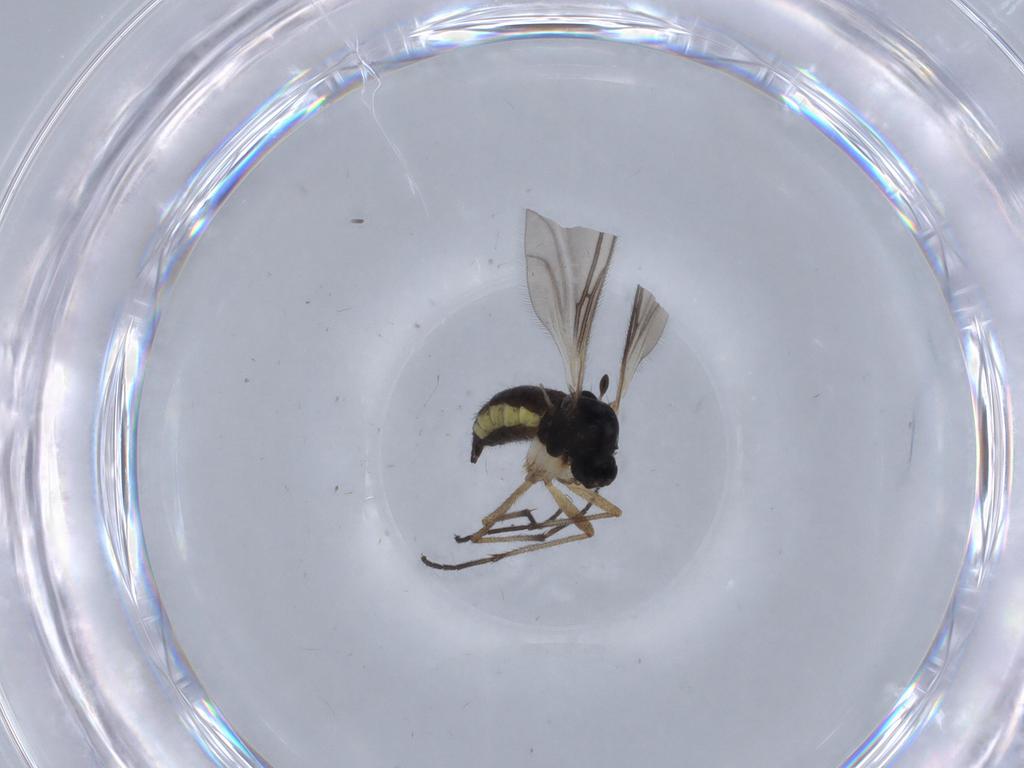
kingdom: Animalia
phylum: Arthropoda
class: Insecta
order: Diptera
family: Sciaridae
